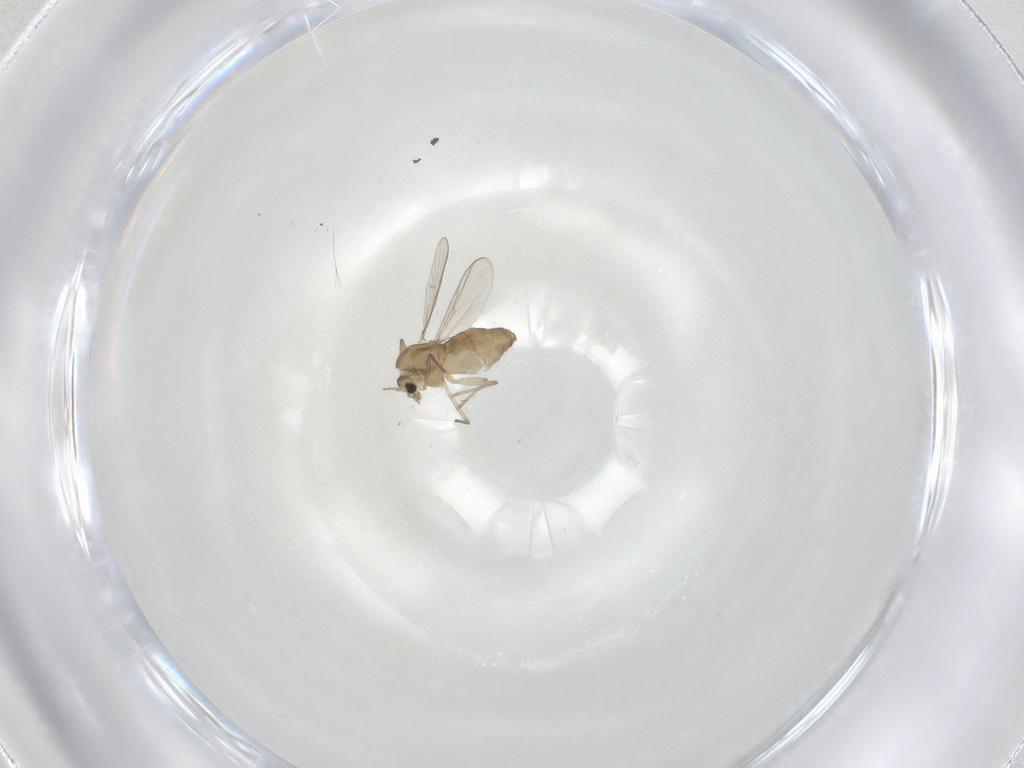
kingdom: Animalia
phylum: Arthropoda
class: Insecta
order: Diptera
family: Chironomidae
